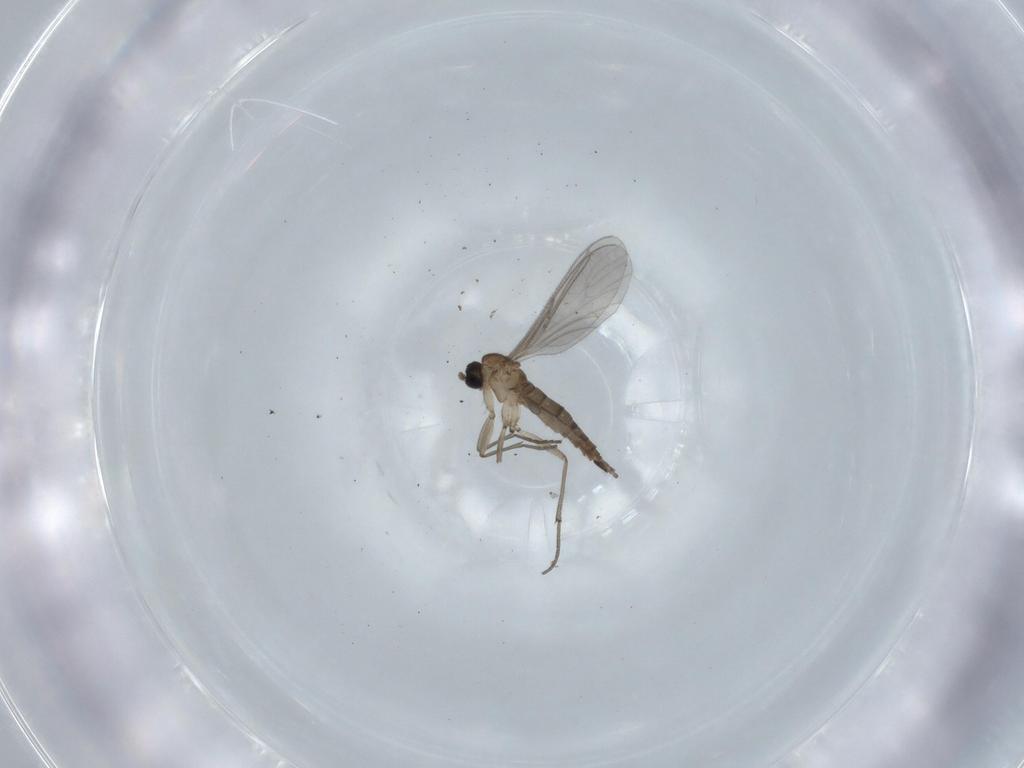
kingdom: Animalia
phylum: Arthropoda
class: Insecta
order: Diptera
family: Sciaridae
